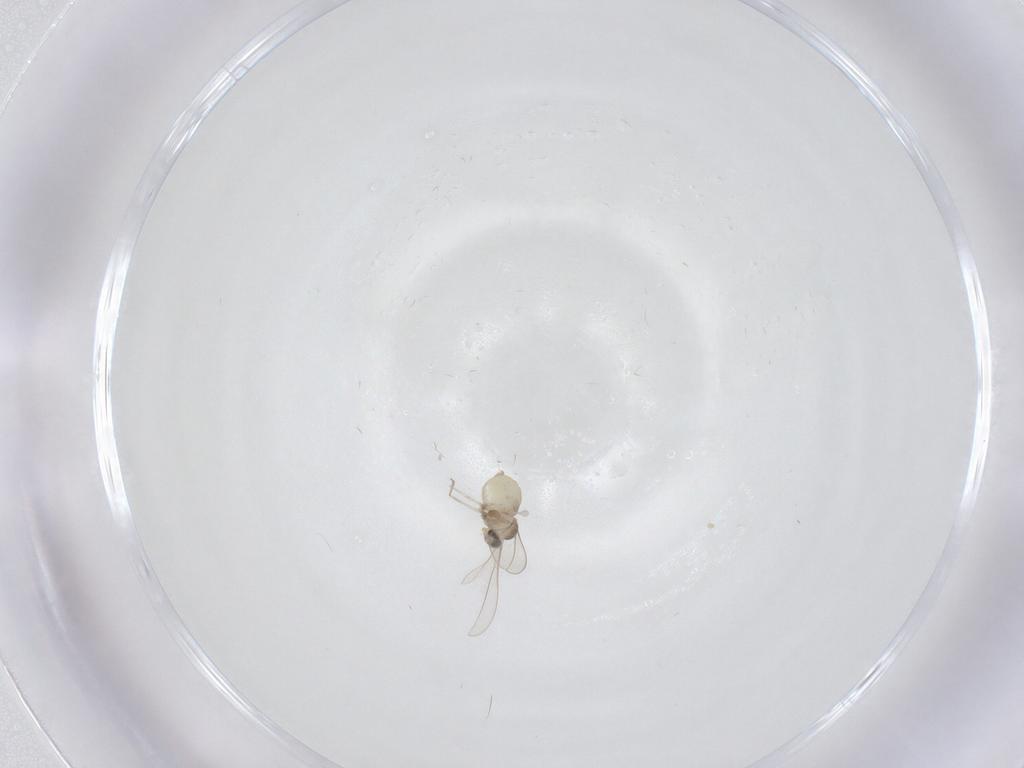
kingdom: Animalia
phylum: Arthropoda
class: Insecta
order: Diptera
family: Cecidomyiidae
